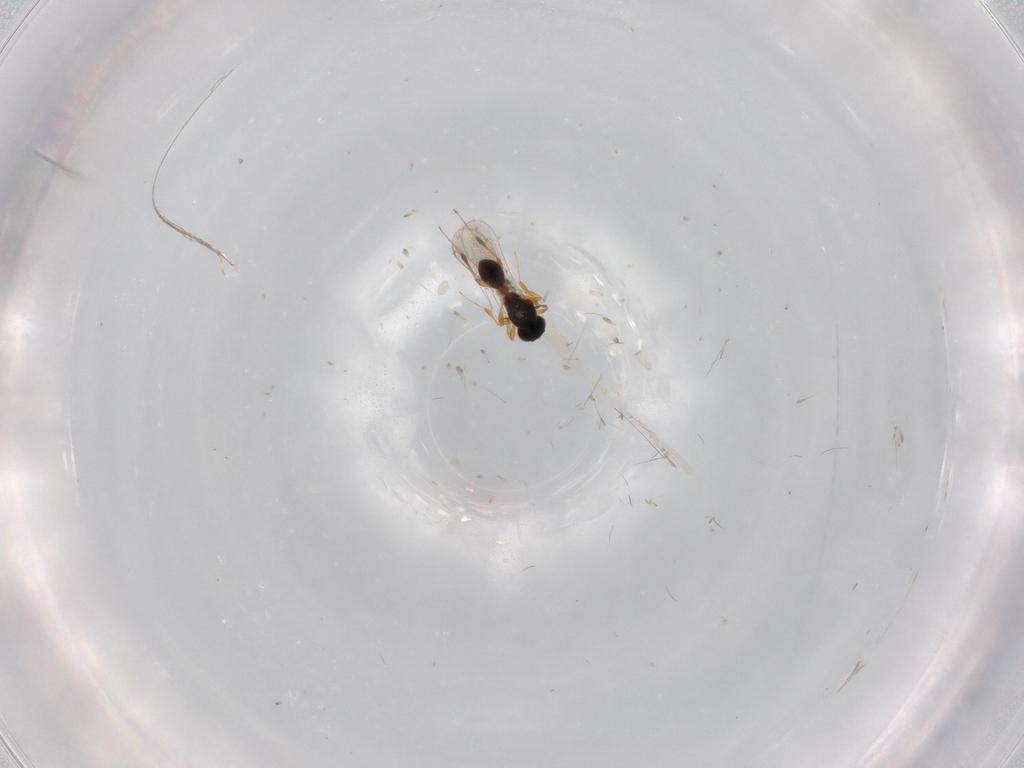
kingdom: Animalia
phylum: Arthropoda
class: Insecta
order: Hymenoptera
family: Platygastridae
